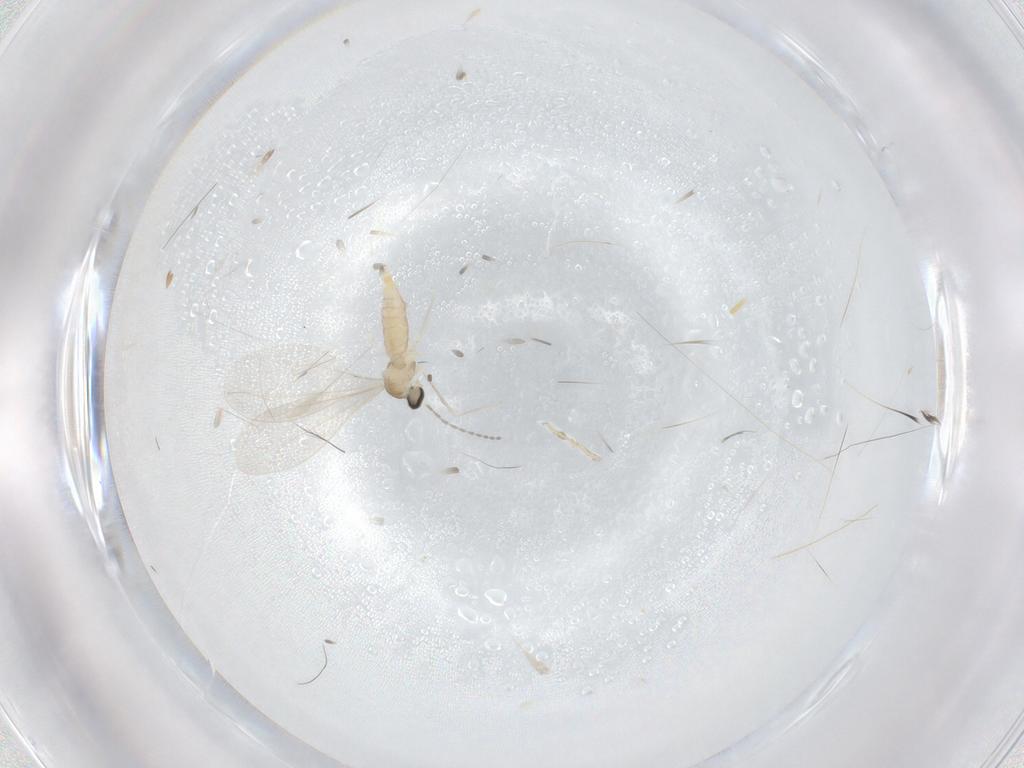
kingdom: Animalia
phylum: Arthropoda
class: Insecta
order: Diptera
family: Cecidomyiidae
